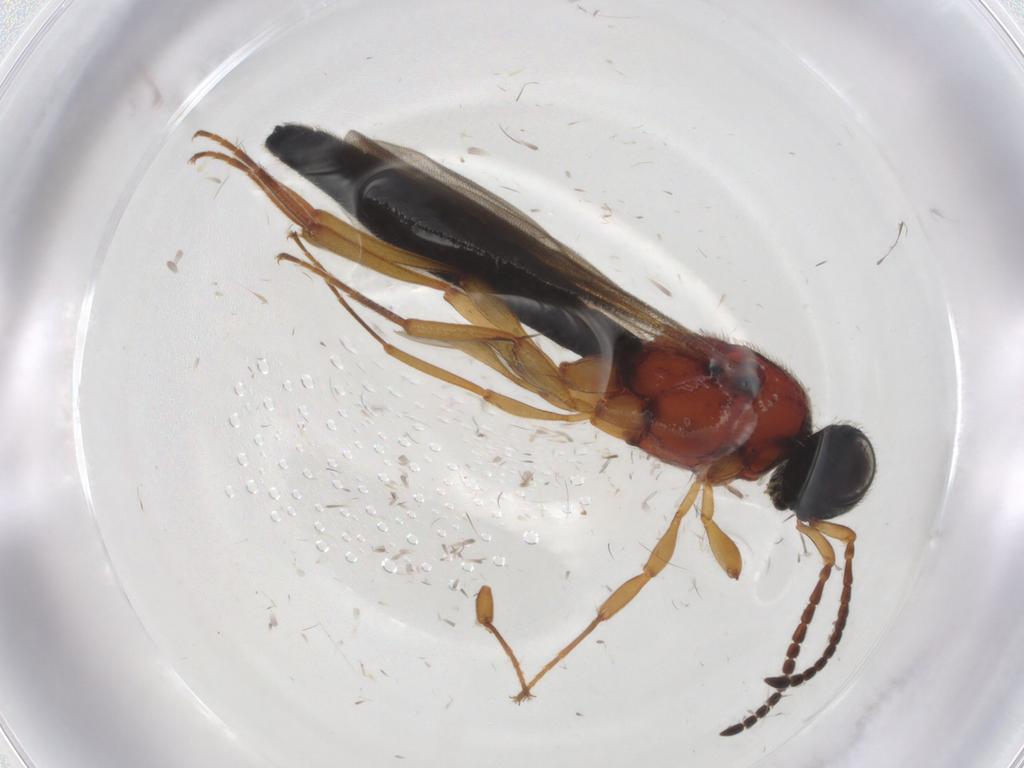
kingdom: Animalia
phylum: Arthropoda
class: Insecta
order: Hymenoptera
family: Scelionidae
